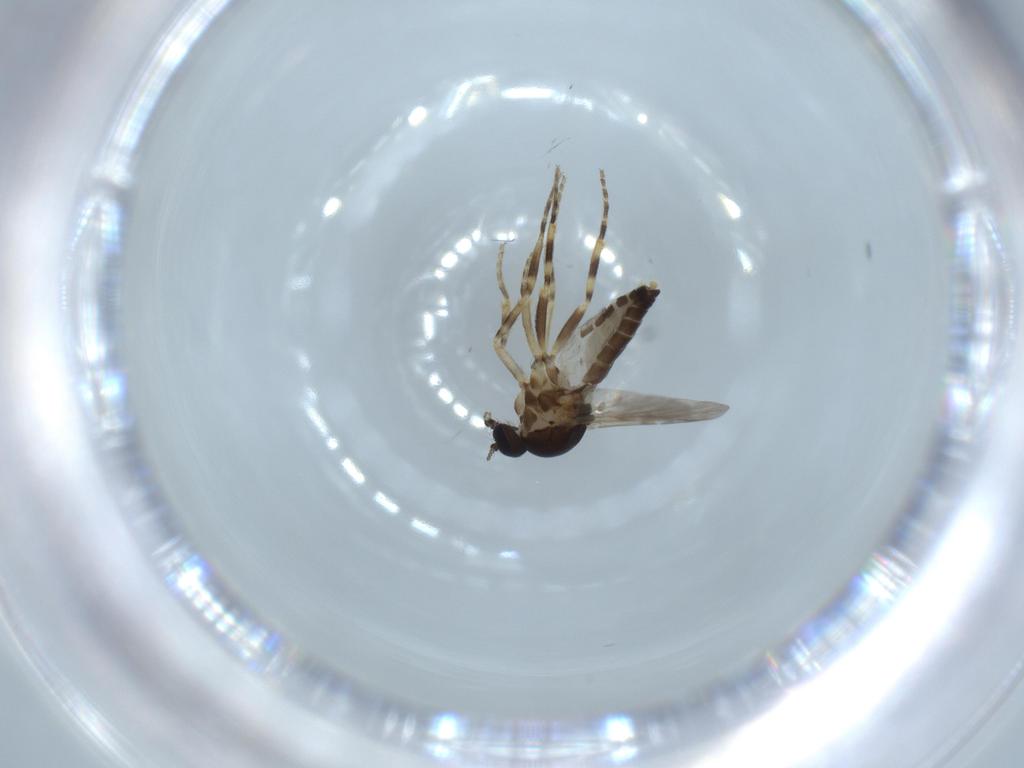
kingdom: Animalia
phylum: Arthropoda
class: Insecta
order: Diptera
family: Ceratopogonidae
